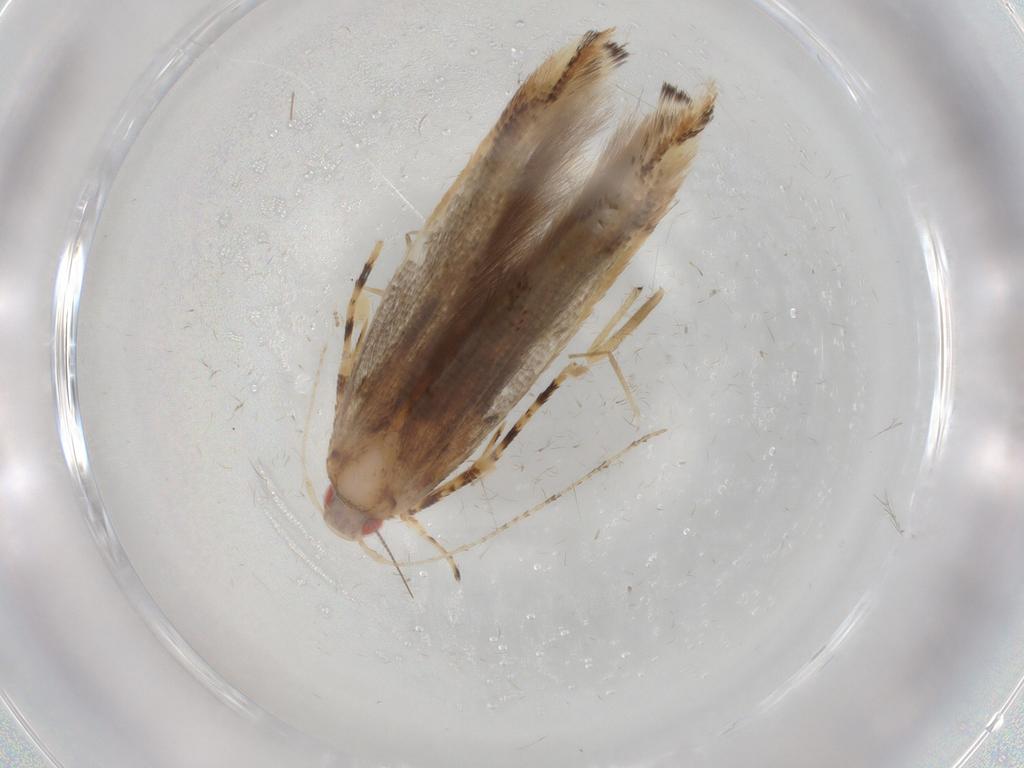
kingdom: Animalia
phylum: Arthropoda
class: Insecta
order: Lepidoptera
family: Cosmopterigidae
